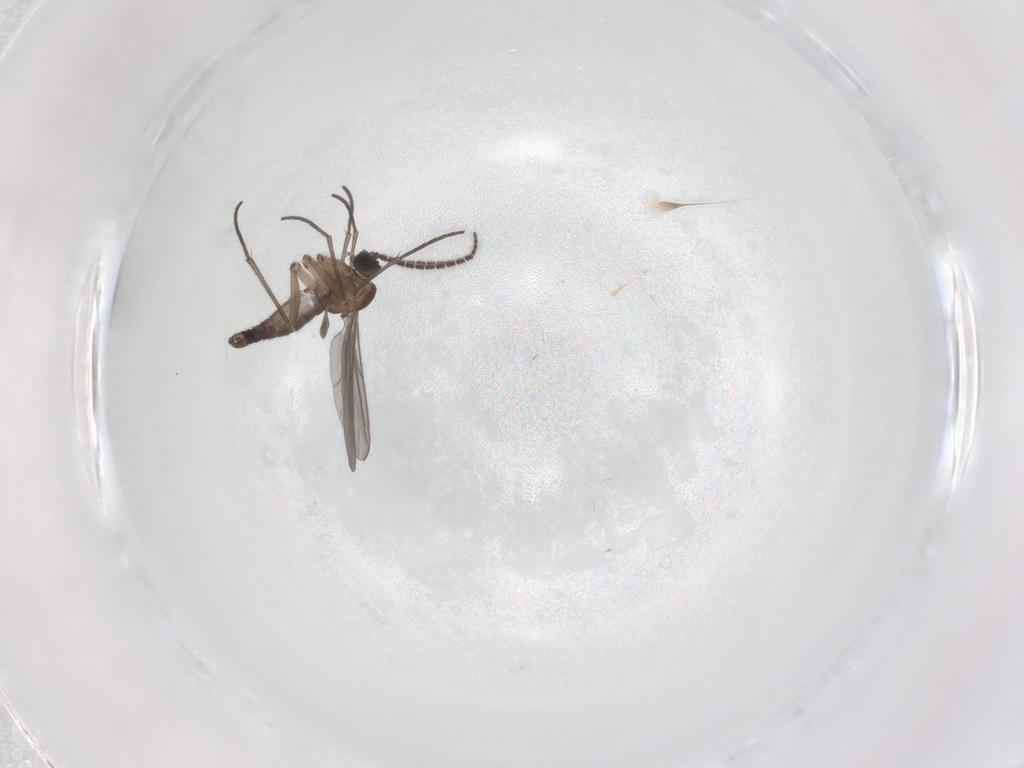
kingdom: Animalia
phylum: Arthropoda
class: Insecta
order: Diptera
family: Sciaridae
